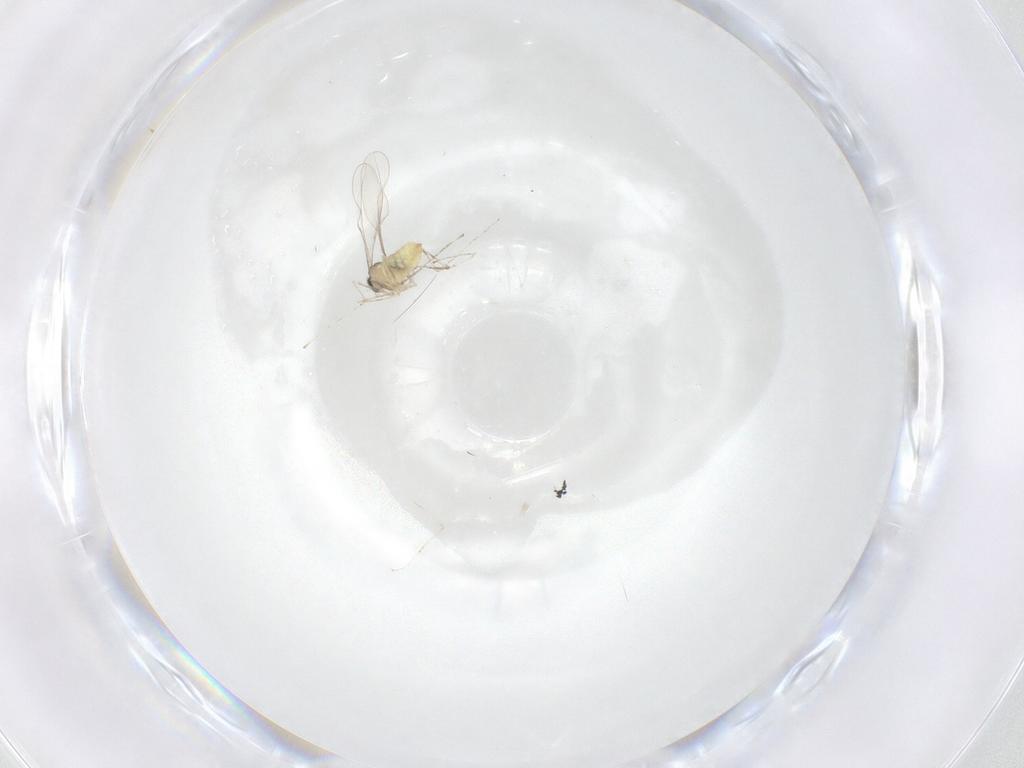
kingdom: Animalia
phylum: Arthropoda
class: Insecta
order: Diptera
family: Cecidomyiidae
